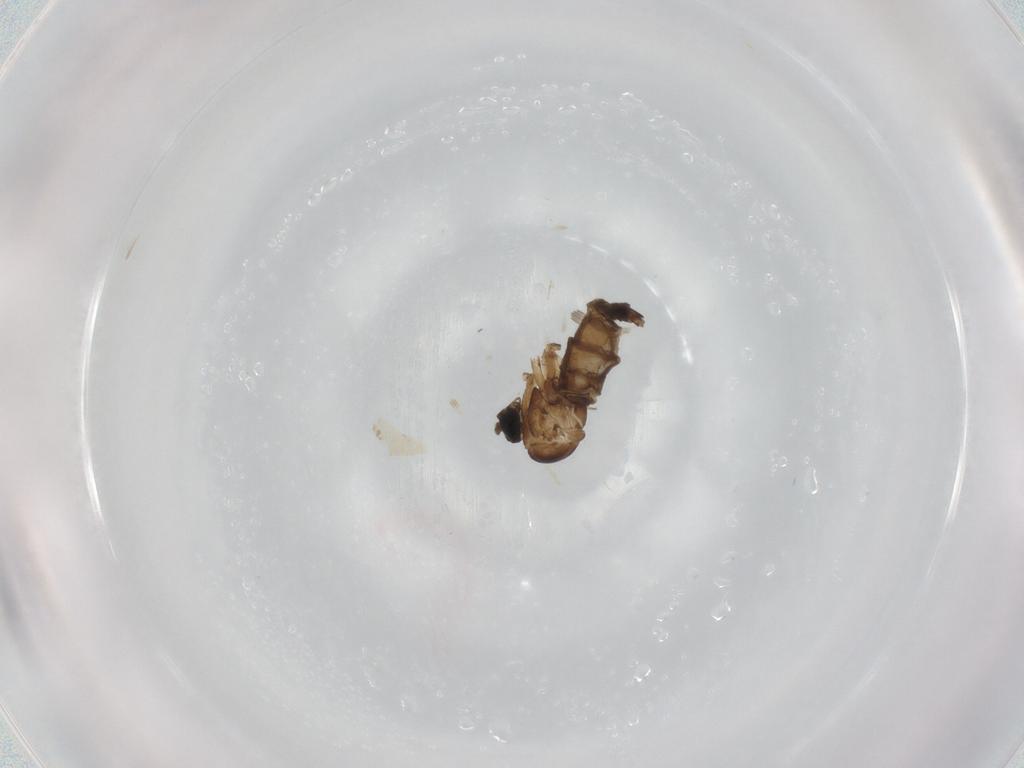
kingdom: Animalia
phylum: Arthropoda
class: Insecta
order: Diptera
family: Sciaridae
